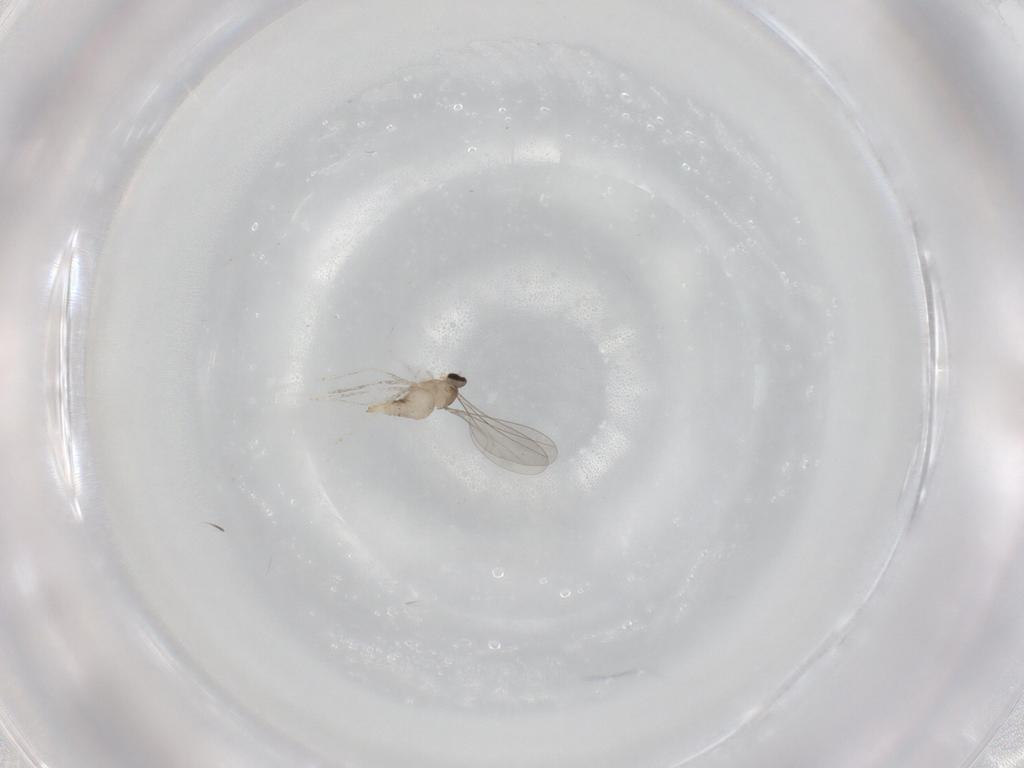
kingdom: Animalia
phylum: Arthropoda
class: Insecta
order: Diptera
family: Cecidomyiidae
